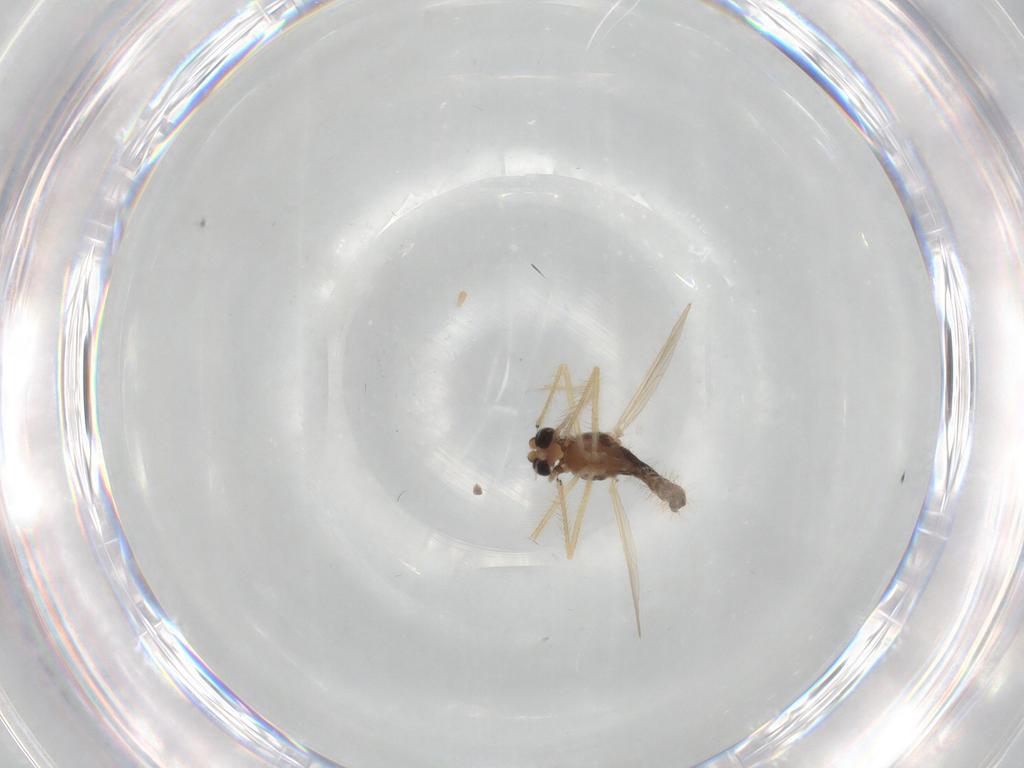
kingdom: Animalia
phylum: Arthropoda
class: Insecta
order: Diptera
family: Chironomidae
